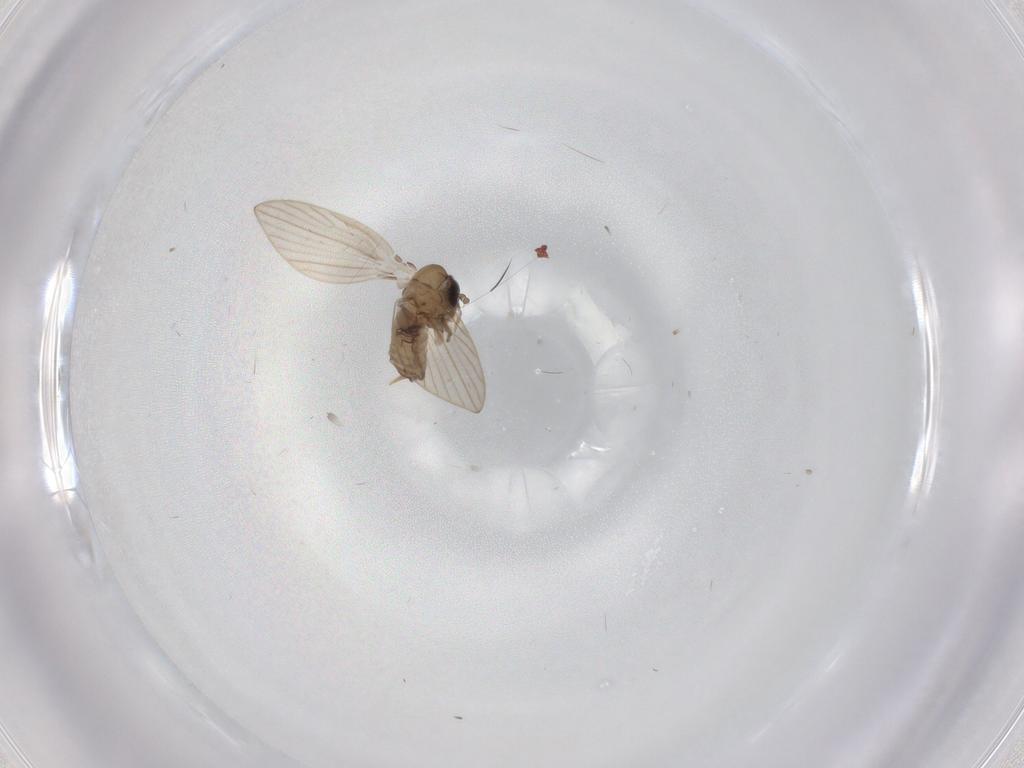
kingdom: Animalia
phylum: Arthropoda
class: Insecta
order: Diptera
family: Psychodidae
